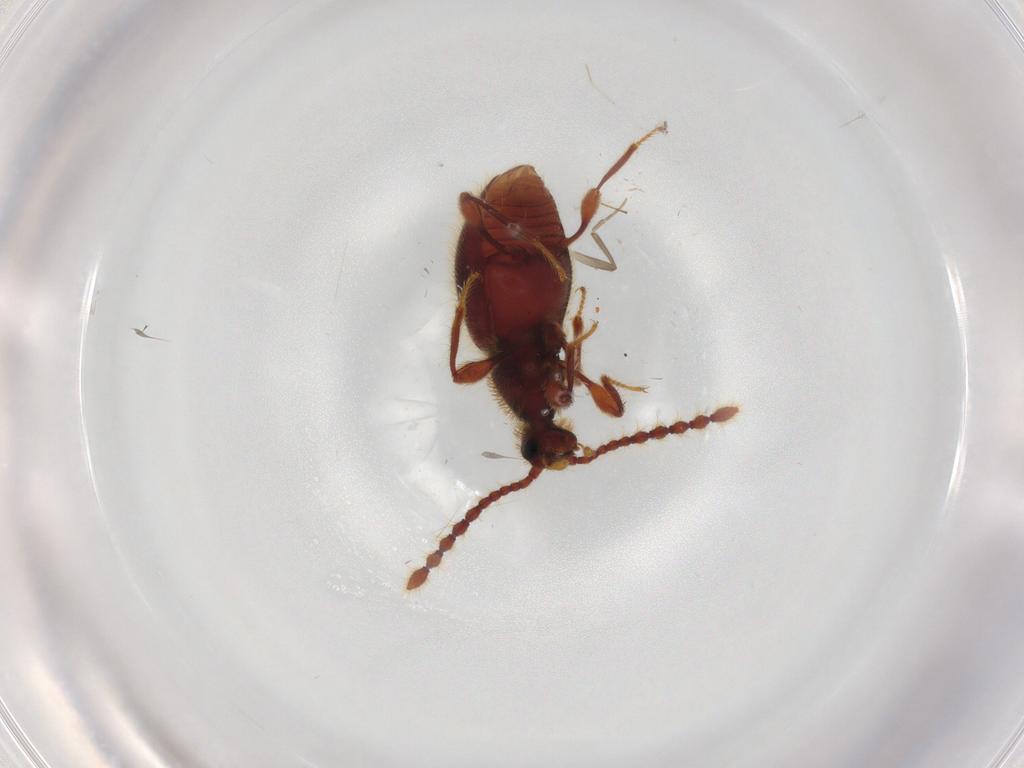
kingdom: Animalia
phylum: Arthropoda
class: Insecta
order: Coleoptera
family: Staphylinidae
